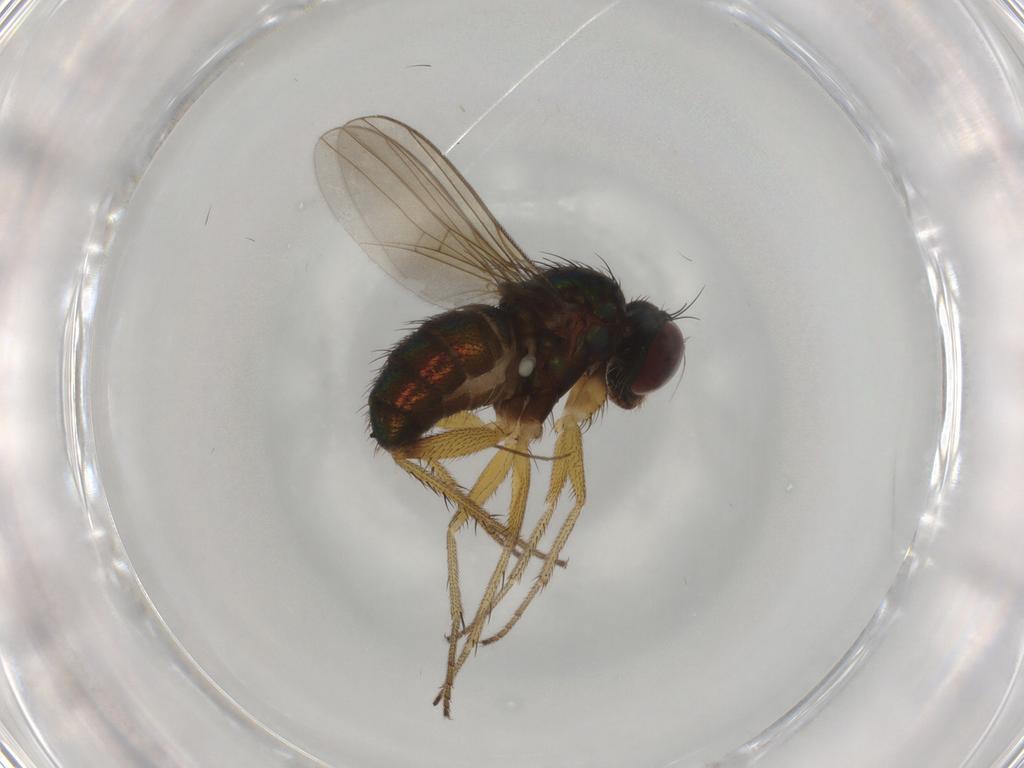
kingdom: Animalia
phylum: Arthropoda
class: Insecta
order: Diptera
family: Dolichopodidae
